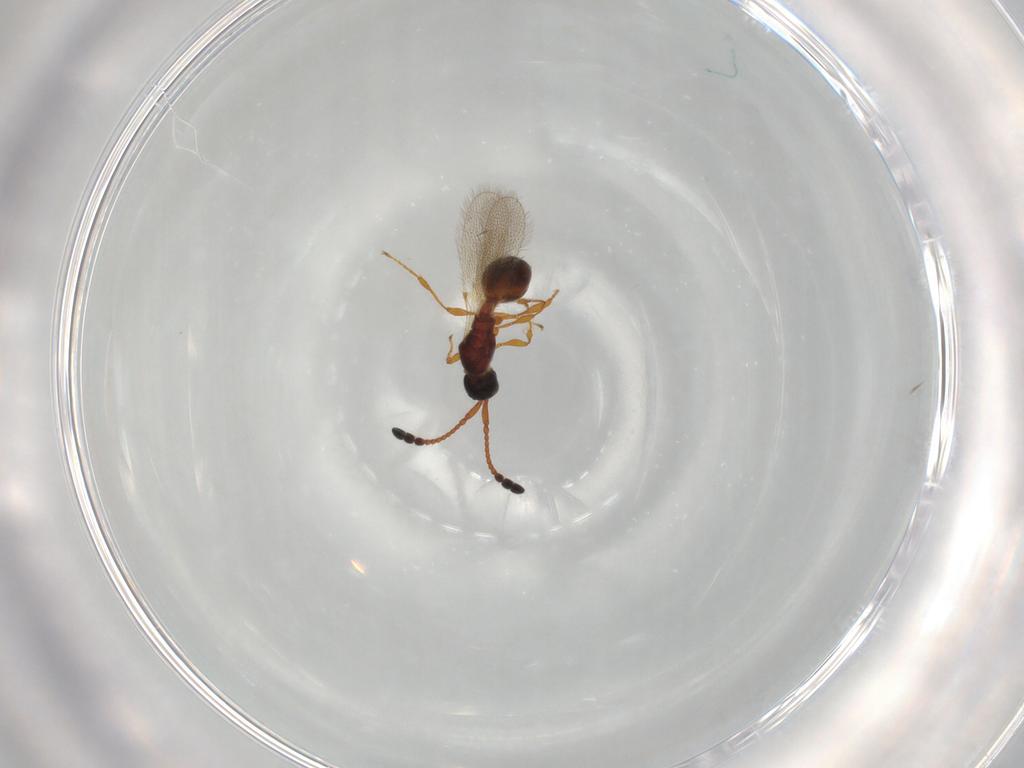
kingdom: Animalia
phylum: Arthropoda
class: Insecta
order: Hymenoptera
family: Diapriidae
